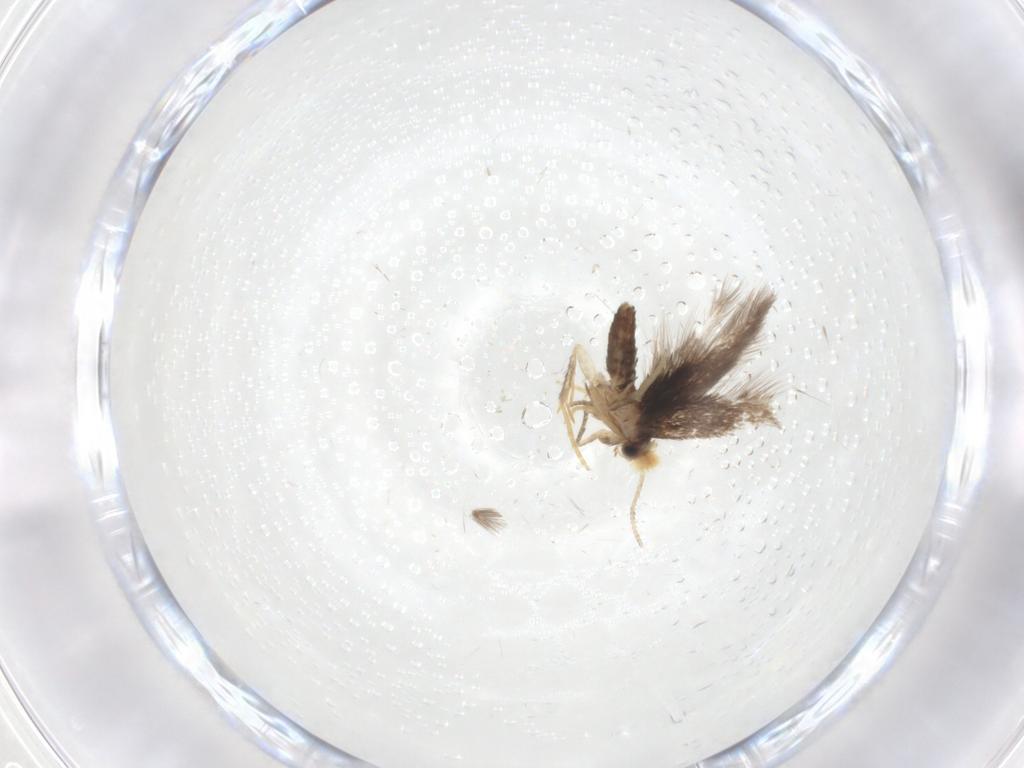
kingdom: Animalia
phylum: Arthropoda
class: Insecta
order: Lepidoptera
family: Nepticulidae
